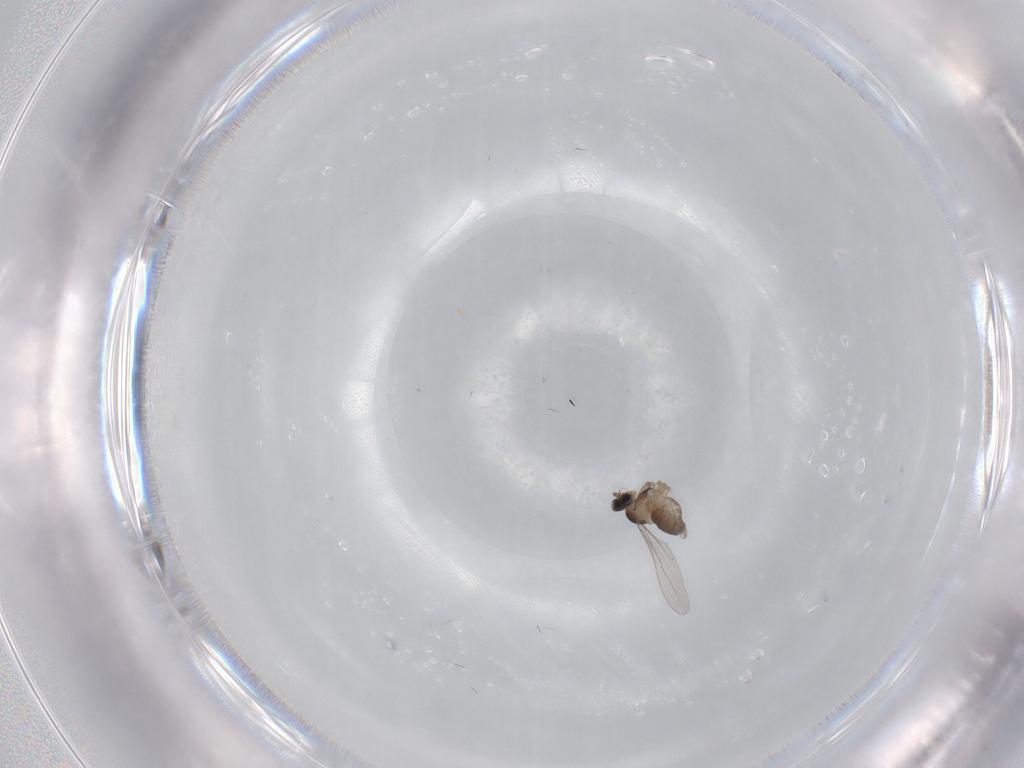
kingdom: Animalia
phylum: Arthropoda
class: Insecta
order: Diptera
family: Cecidomyiidae
